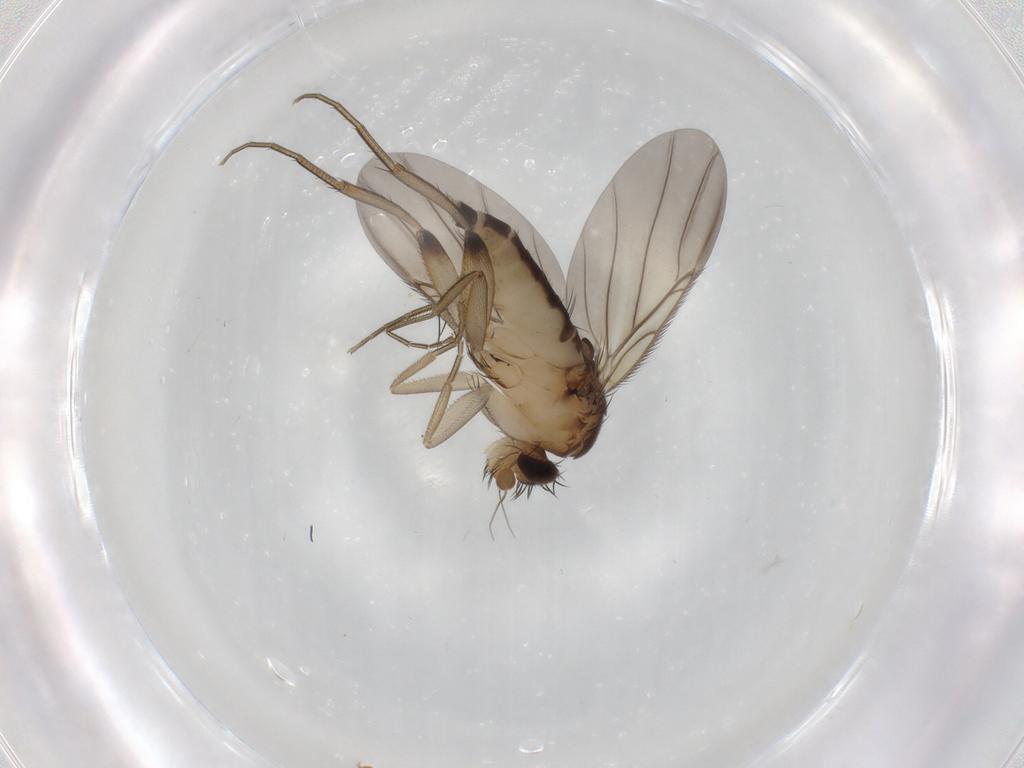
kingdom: Animalia
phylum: Arthropoda
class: Insecta
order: Diptera
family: Phoridae
